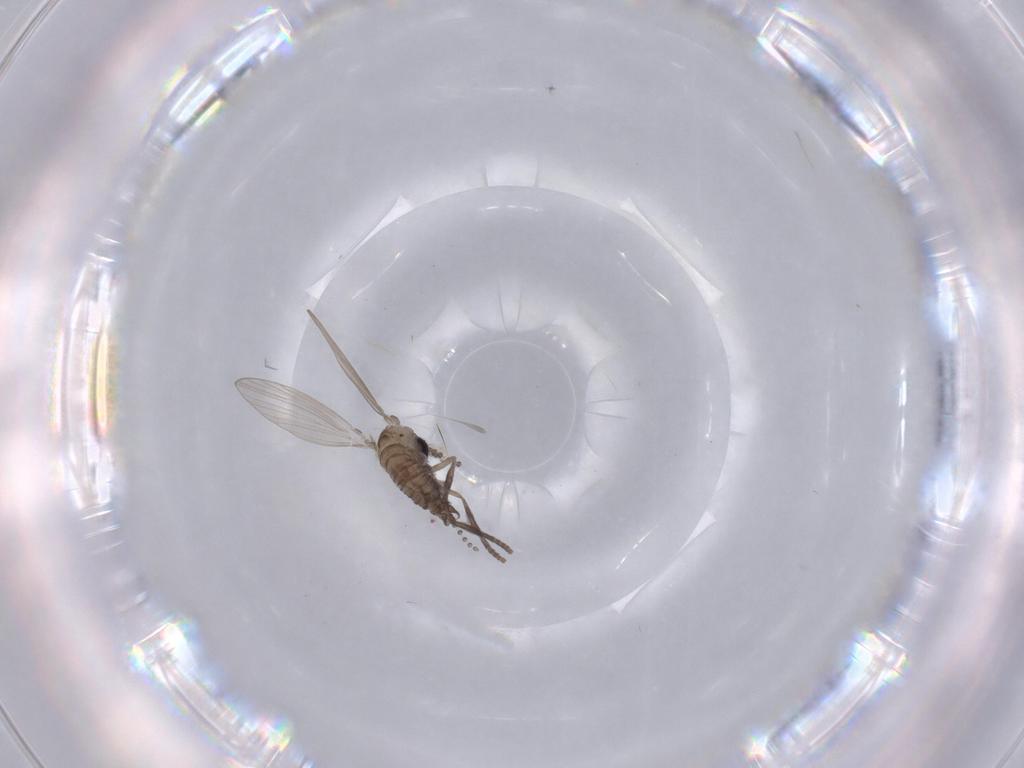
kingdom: Animalia
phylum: Arthropoda
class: Insecta
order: Diptera
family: Psychodidae
